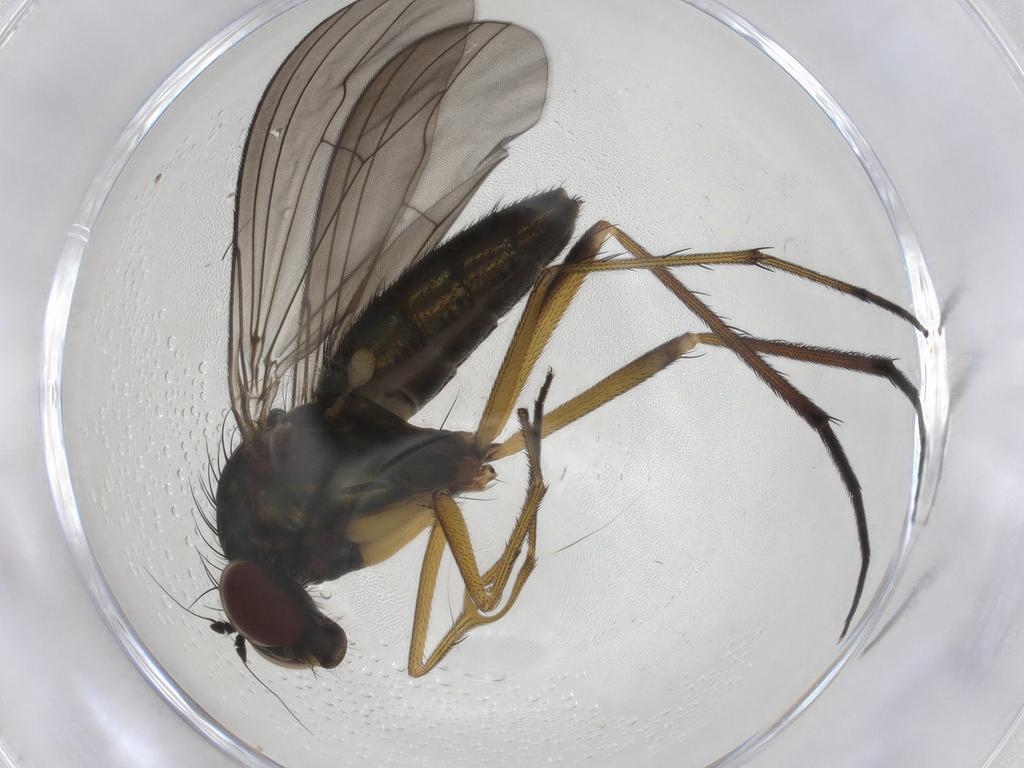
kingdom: Animalia
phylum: Arthropoda
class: Insecta
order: Diptera
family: Dolichopodidae
